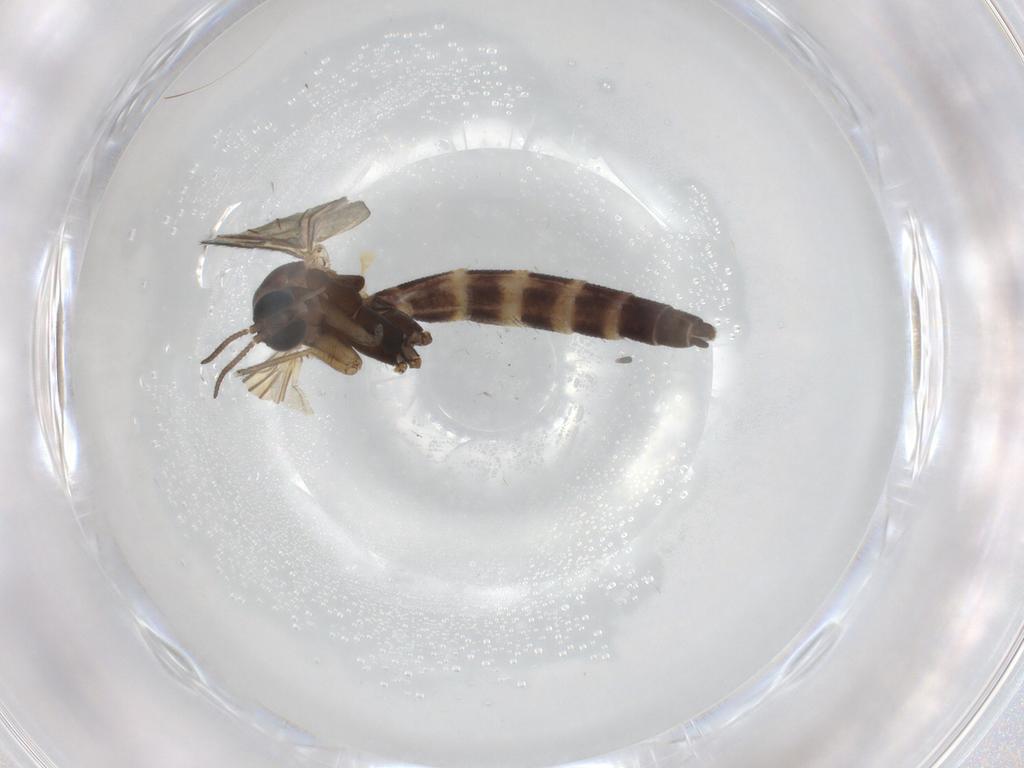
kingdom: Animalia
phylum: Arthropoda
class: Insecta
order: Diptera
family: Keroplatidae
